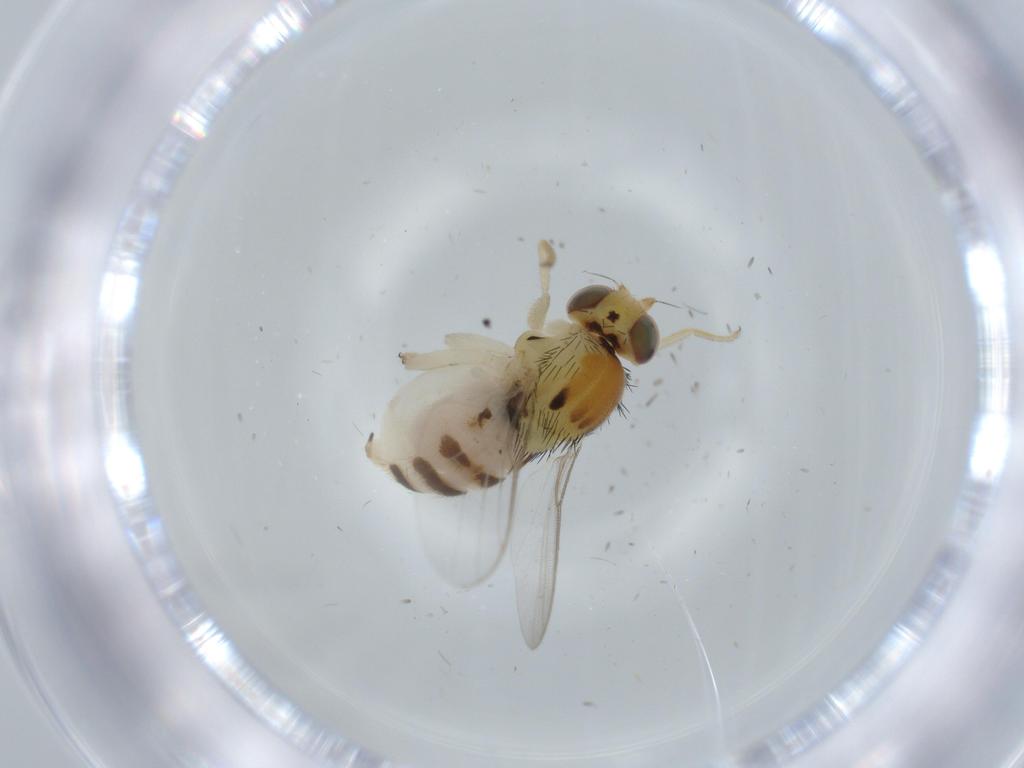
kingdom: Animalia
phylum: Arthropoda
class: Insecta
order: Diptera
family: Chloropidae
